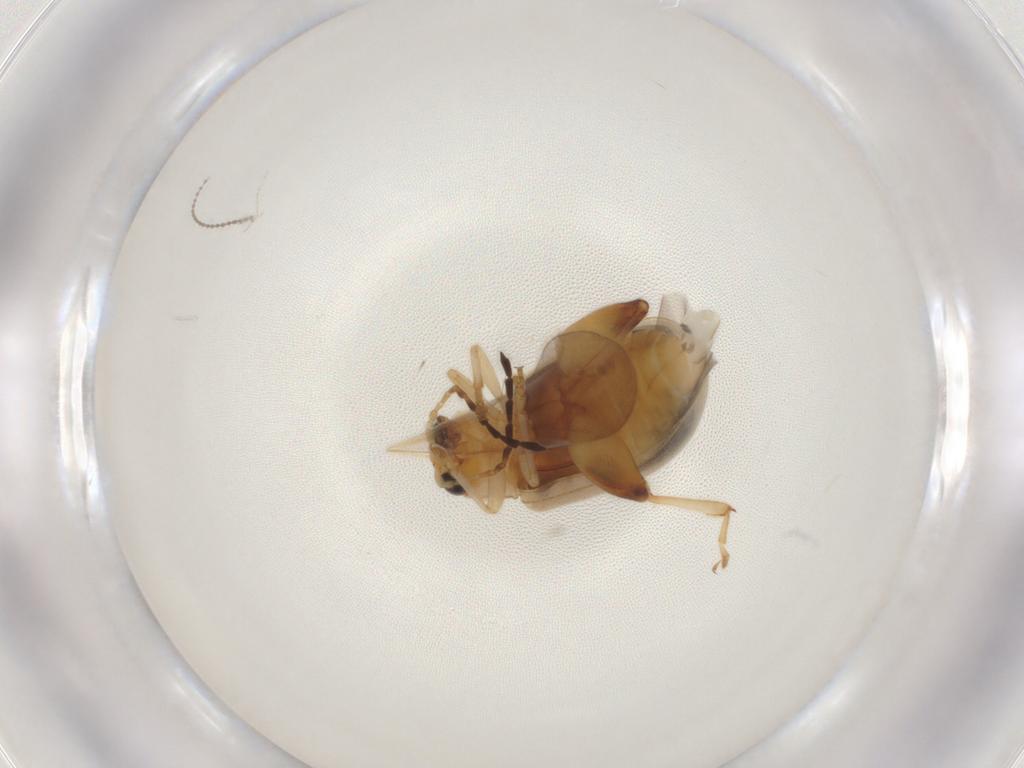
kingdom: Animalia
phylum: Arthropoda
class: Insecta
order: Coleoptera
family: Chrysomelidae
